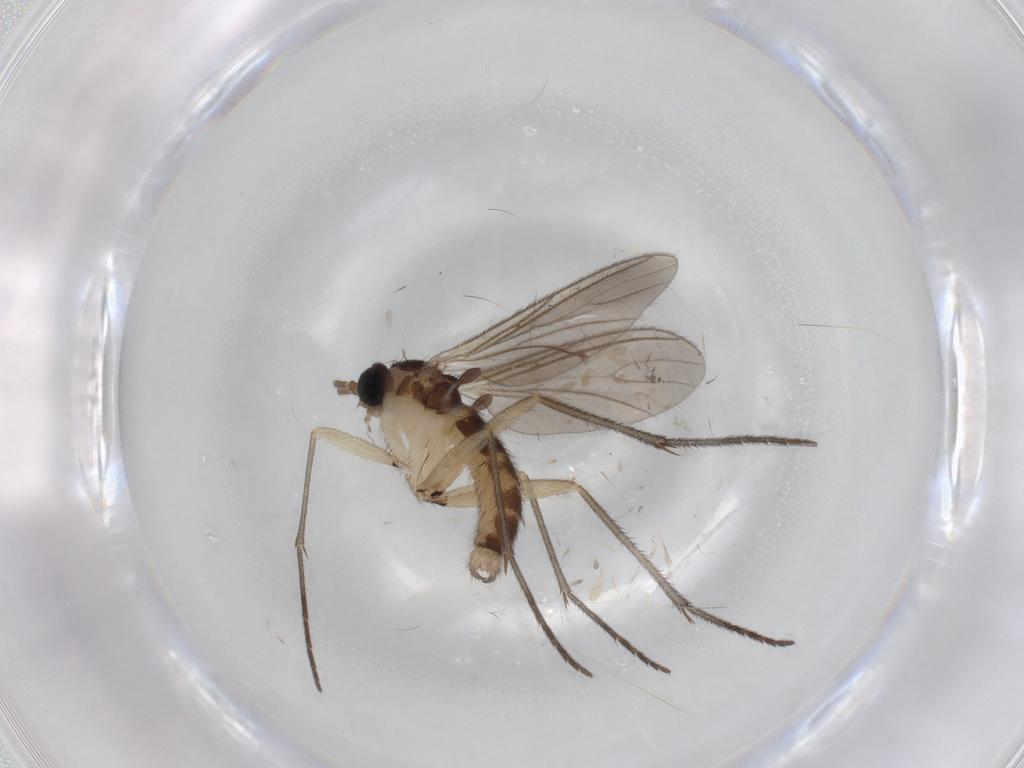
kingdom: Animalia
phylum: Arthropoda
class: Insecta
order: Diptera
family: Sciaridae
